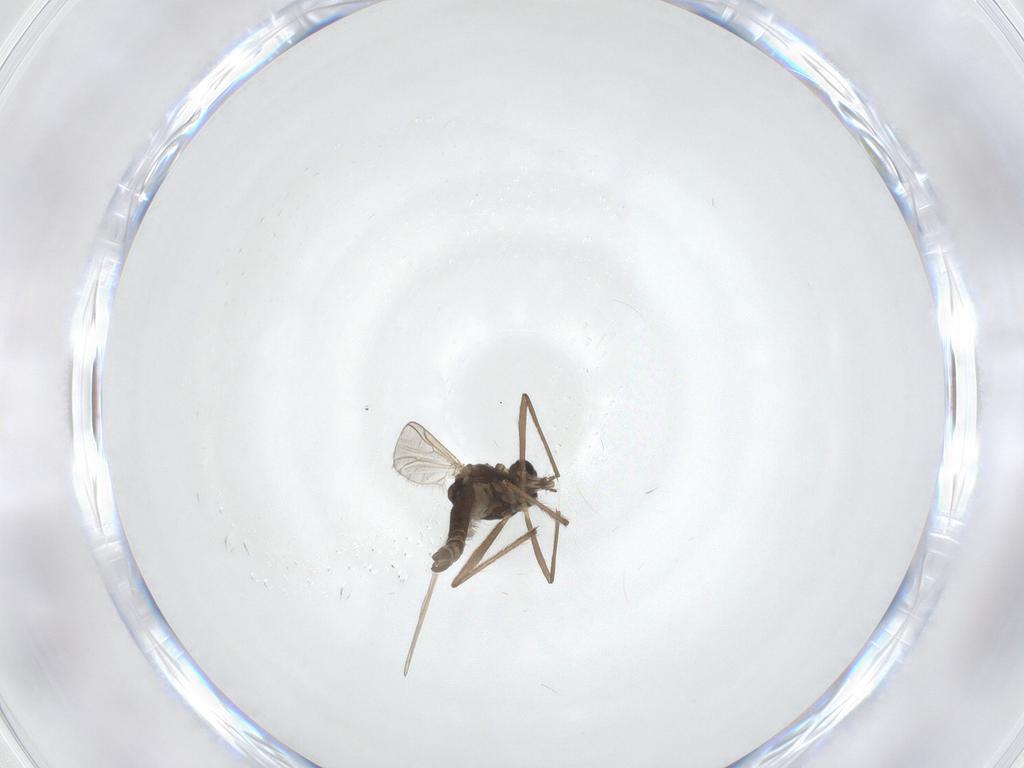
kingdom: Animalia
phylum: Arthropoda
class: Insecta
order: Diptera
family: Chironomidae
